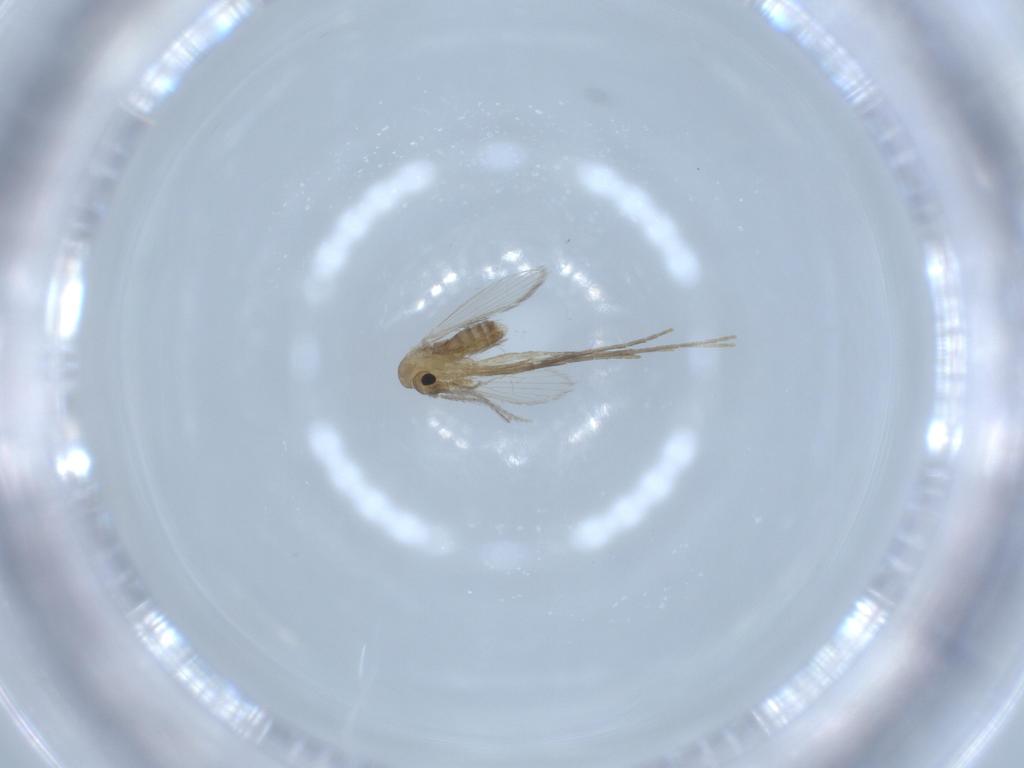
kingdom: Animalia
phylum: Arthropoda
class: Insecta
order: Diptera
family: Psychodidae
